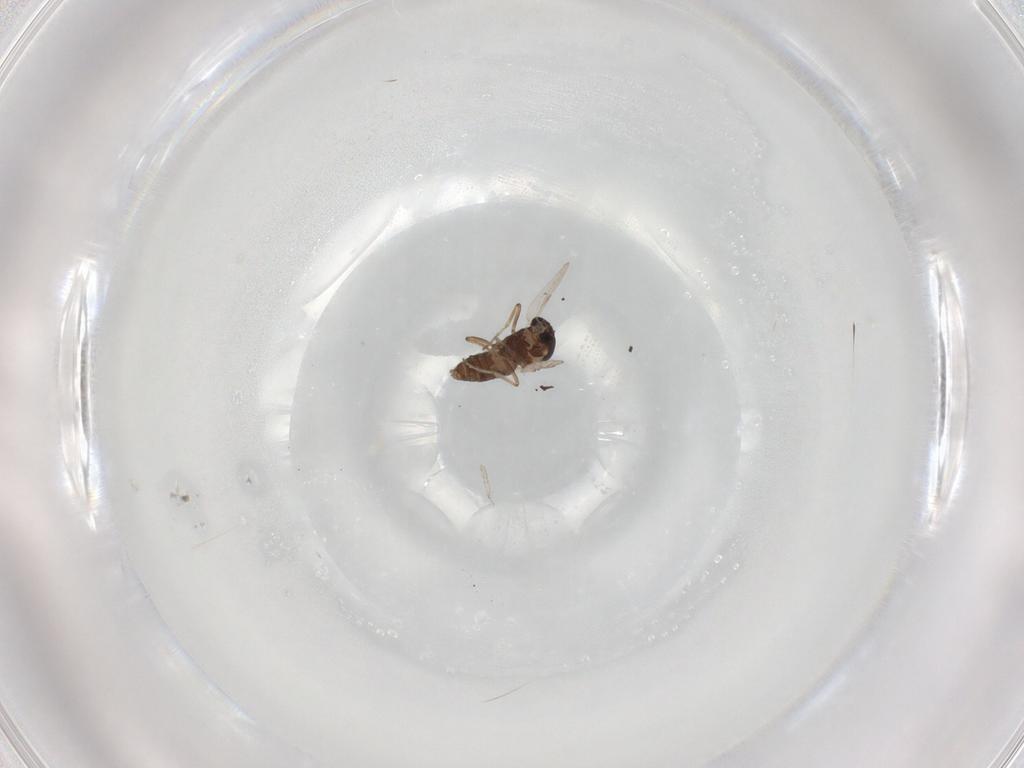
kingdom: Animalia
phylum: Arthropoda
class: Insecta
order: Diptera
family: Ceratopogonidae
